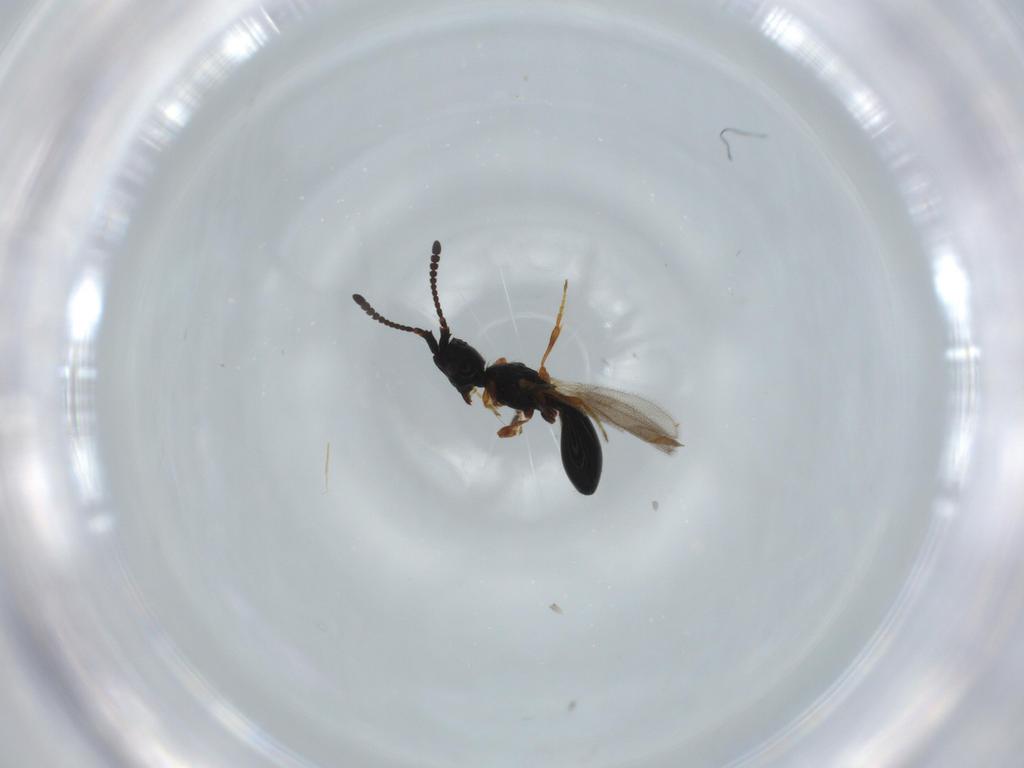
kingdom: Animalia
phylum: Arthropoda
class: Insecta
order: Hymenoptera
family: Diapriidae
